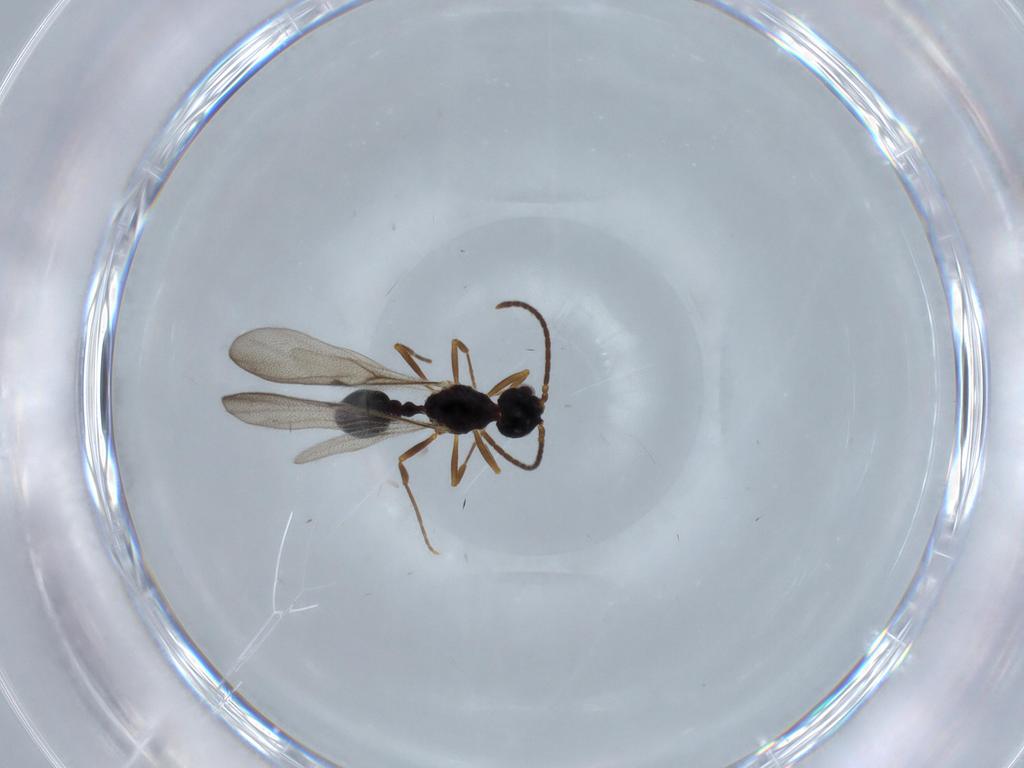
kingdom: Animalia
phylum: Arthropoda
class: Insecta
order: Hymenoptera
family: Formicidae
